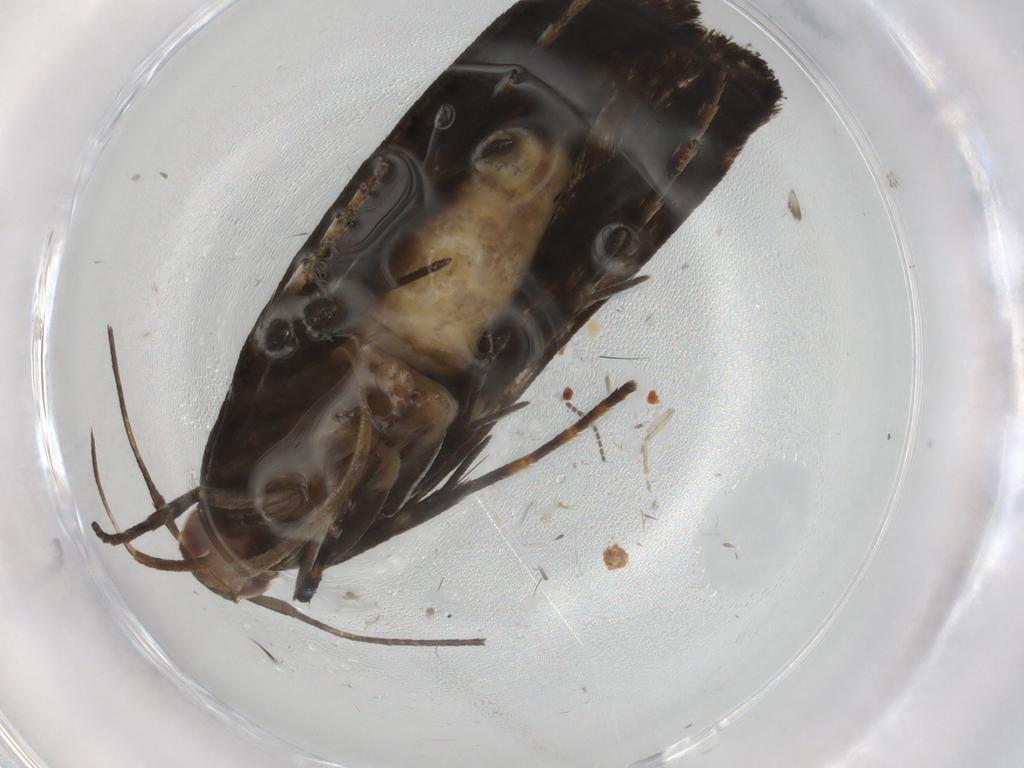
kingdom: Animalia
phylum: Arthropoda
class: Insecta
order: Lepidoptera
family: Gelechiidae
